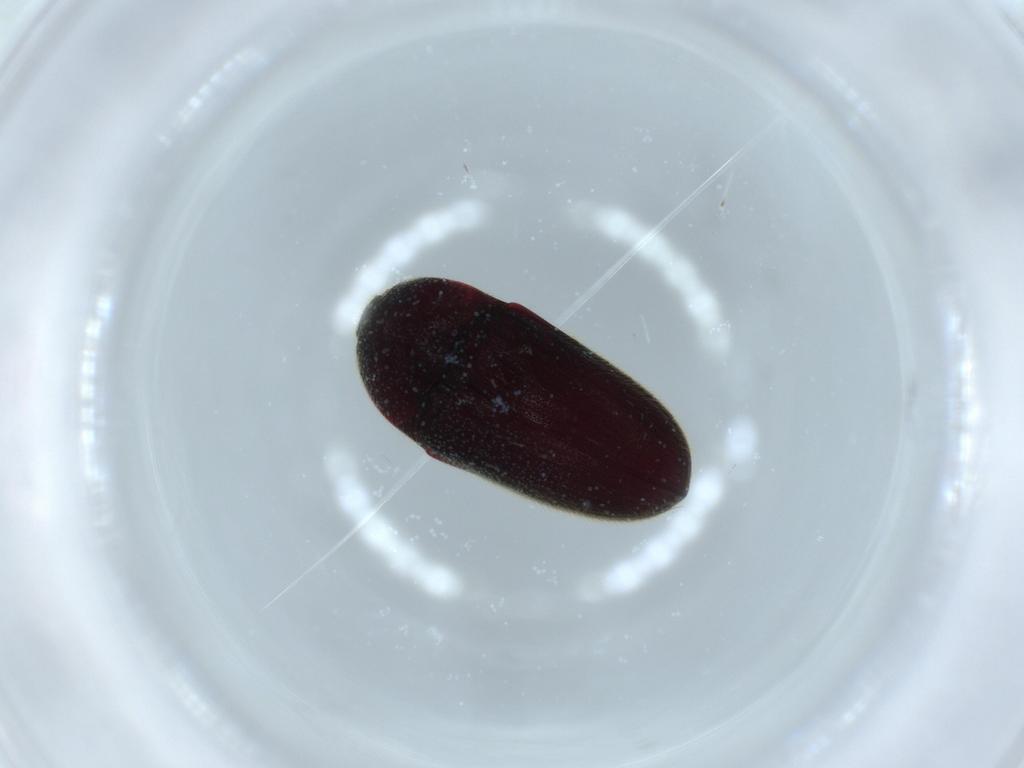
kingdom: Animalia
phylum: Arthropoda
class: Insecta
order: Coleoptera
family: Throscidae
